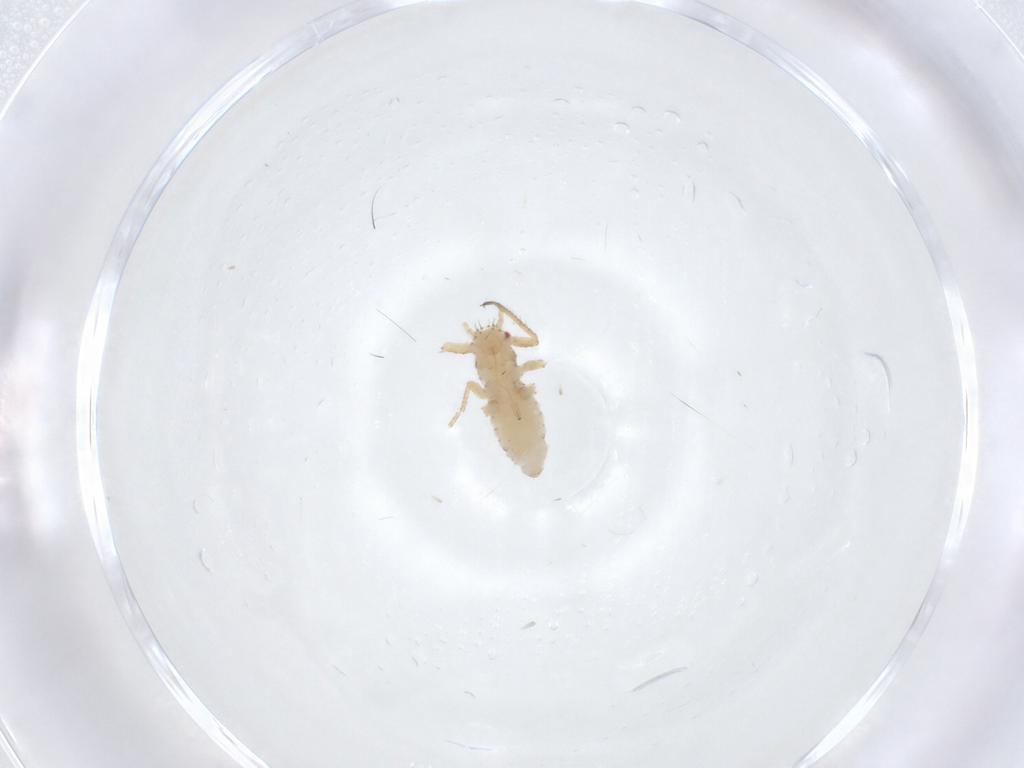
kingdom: Animalia
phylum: Arthropoda
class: Insecta
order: Hemiptera
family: Aphididae
